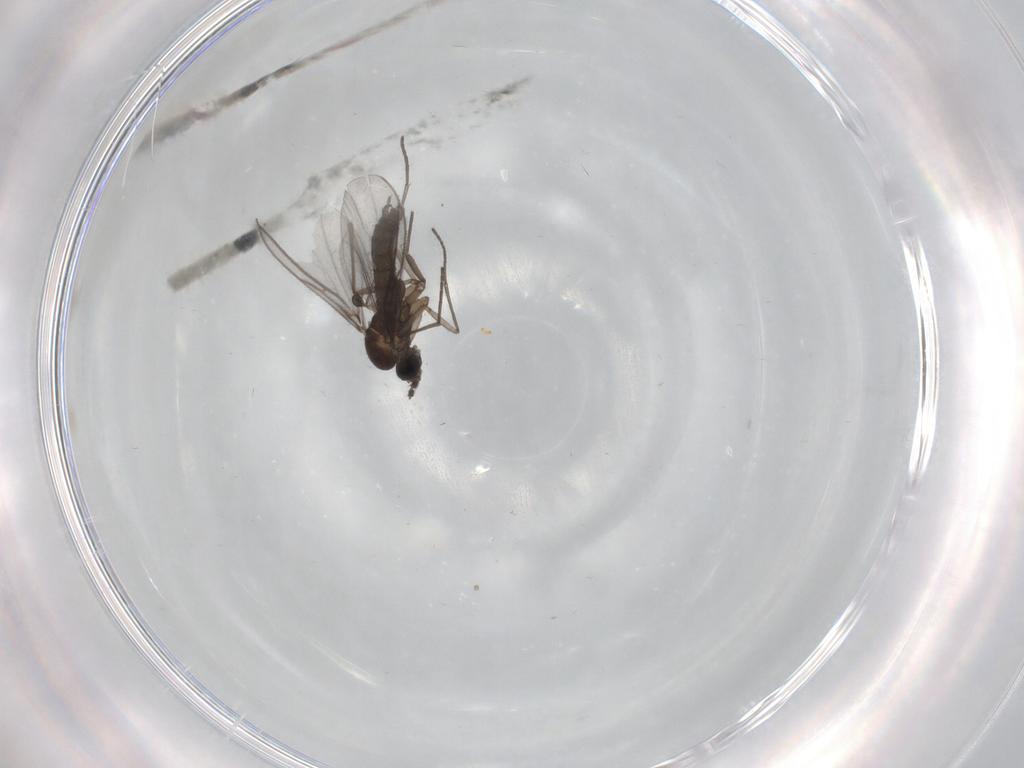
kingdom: Animalia
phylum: Arthropoda
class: Insecta
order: Diptera
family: Sciaridae
